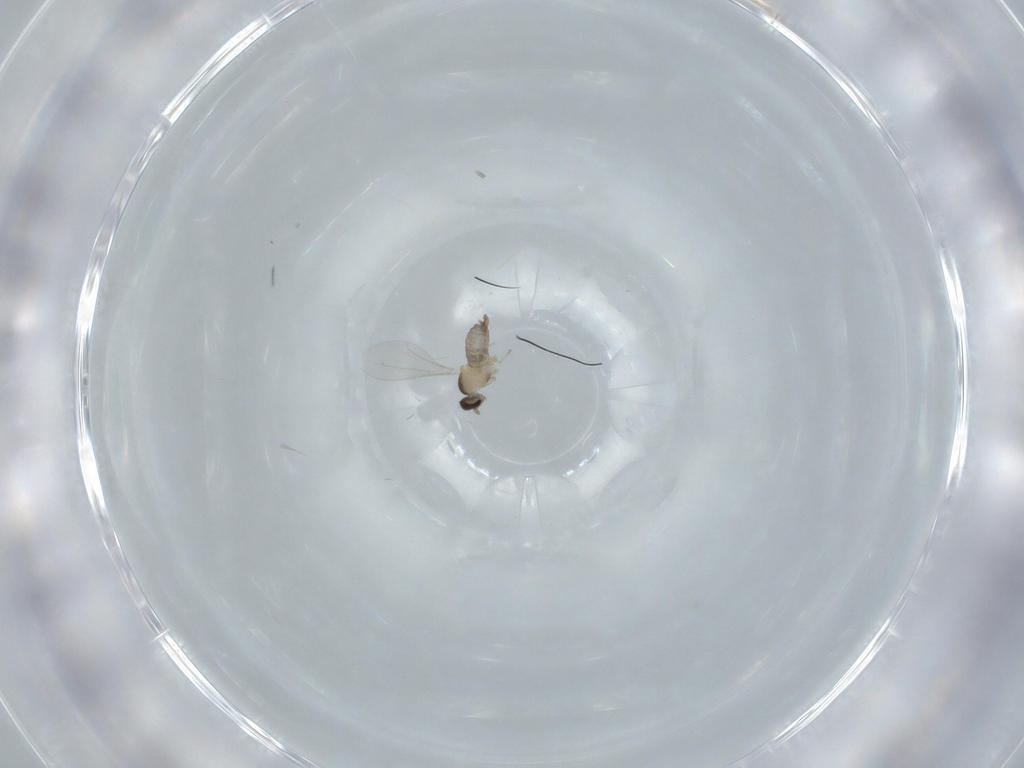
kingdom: Animalia
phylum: Arthropoda
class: Insecta
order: Diptera
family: Cecidomyiidae
